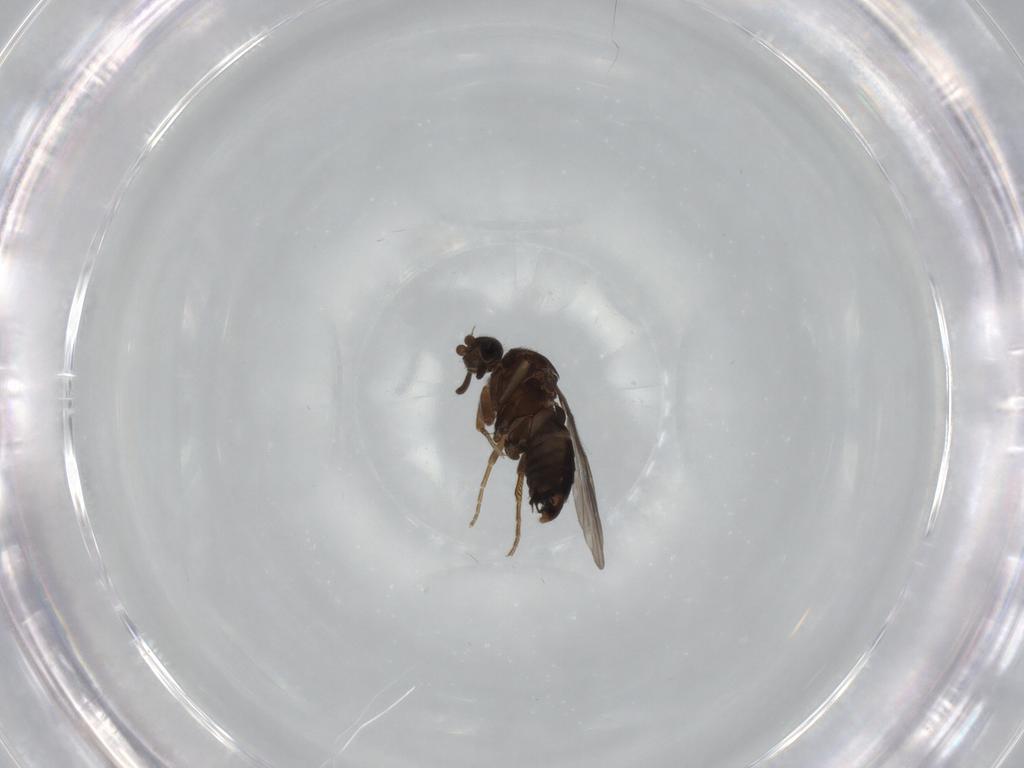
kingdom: Animalia
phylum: Arthropoda
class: Insecta
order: Diptera
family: Phoridae
